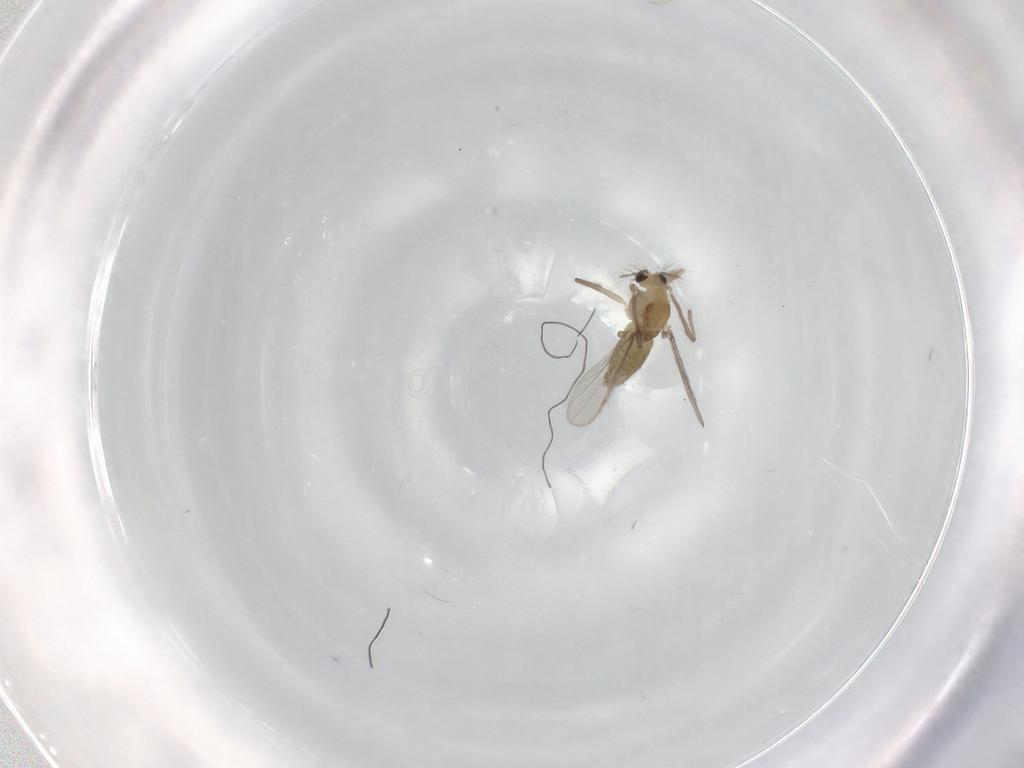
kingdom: Animalia
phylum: Arthropoda
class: Insecta
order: Diptera
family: Chironomidae
